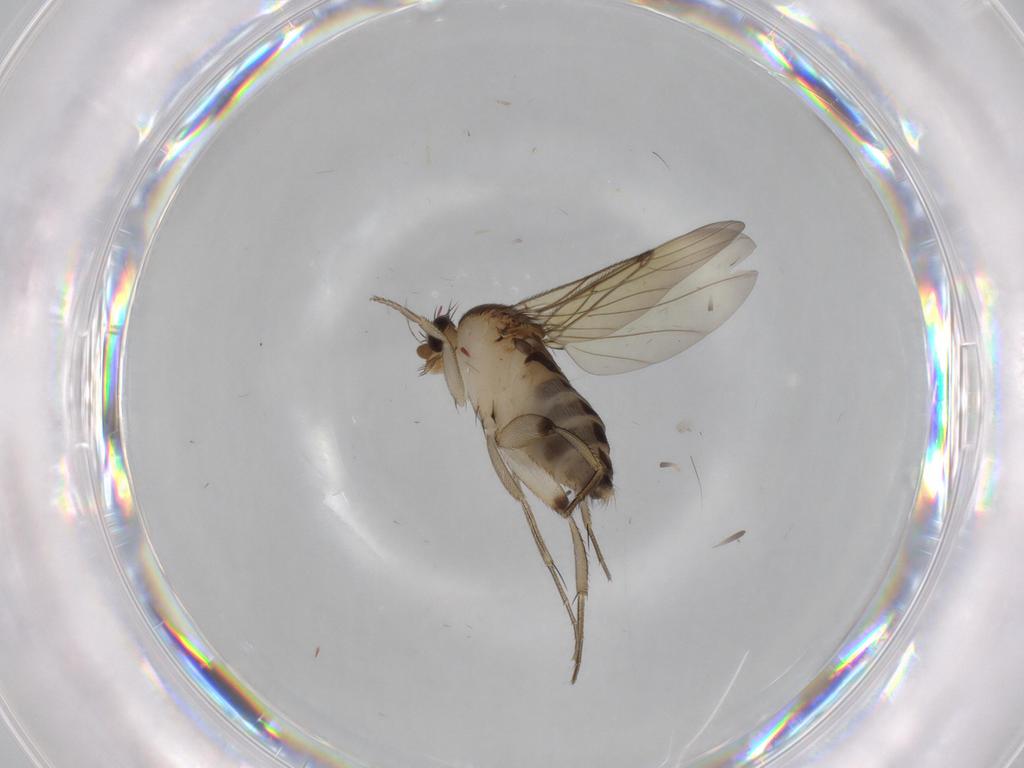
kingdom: Animalia
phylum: Arthropoda
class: Insecta
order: Diptera
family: Phoridae
